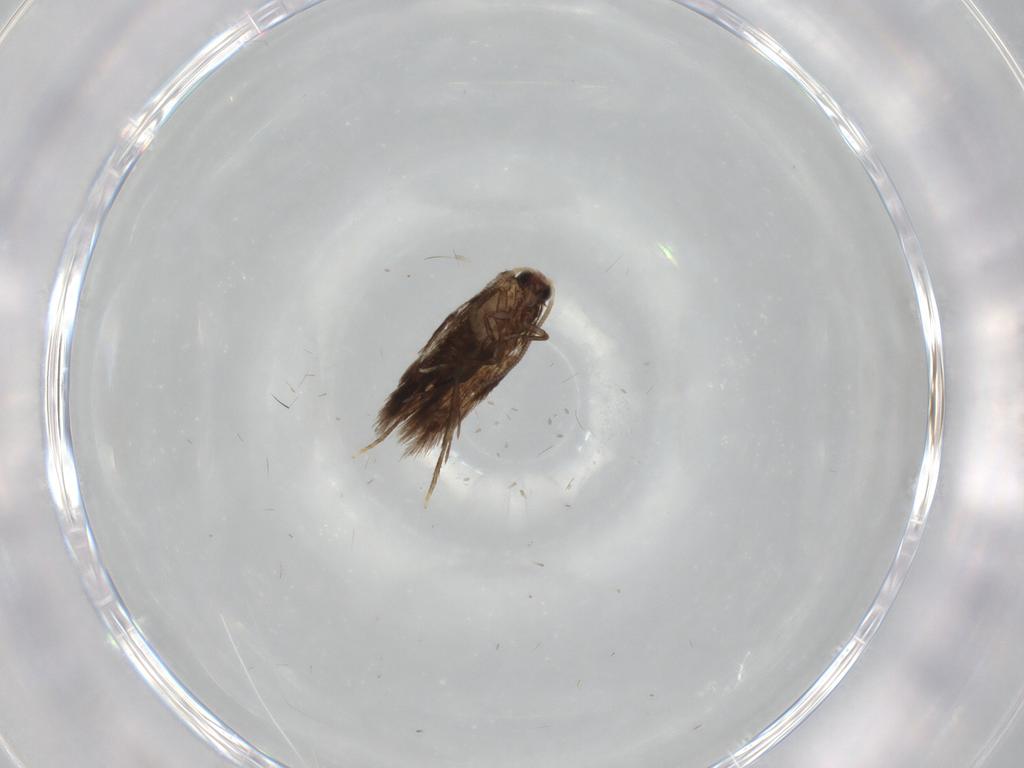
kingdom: Animalia
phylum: Arthropoda
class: Insecta
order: Lepidoptera
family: Nepticulidae
